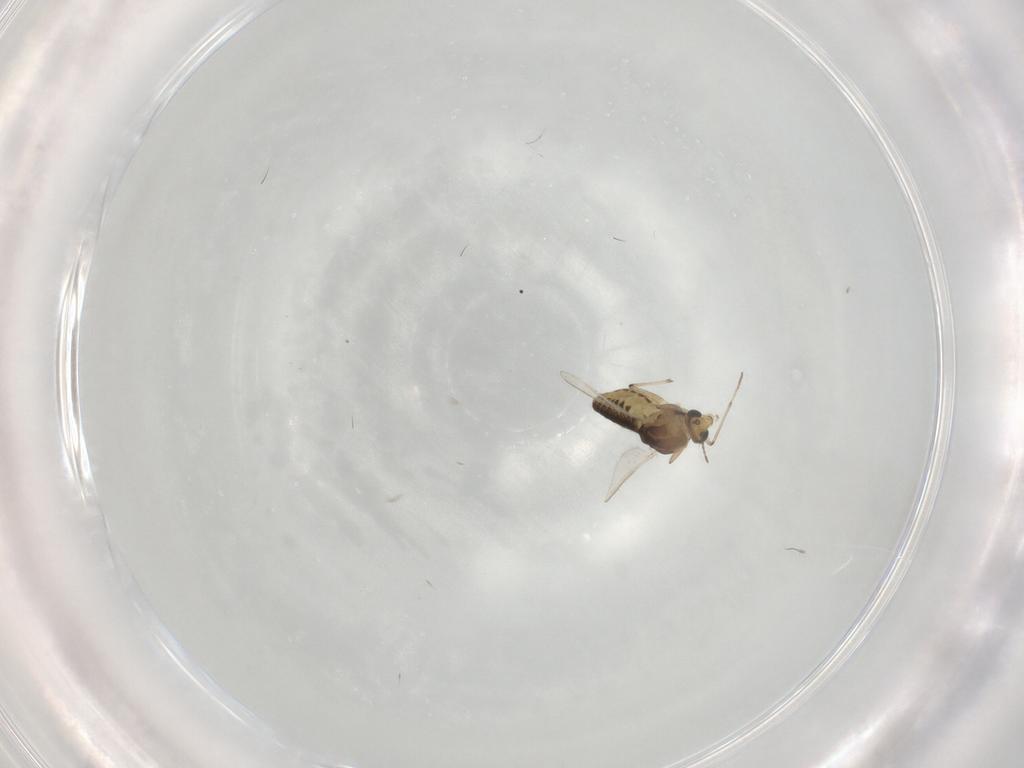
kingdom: Animalia
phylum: Arthropoda
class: Insecta
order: Diptera
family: Chironomidae
